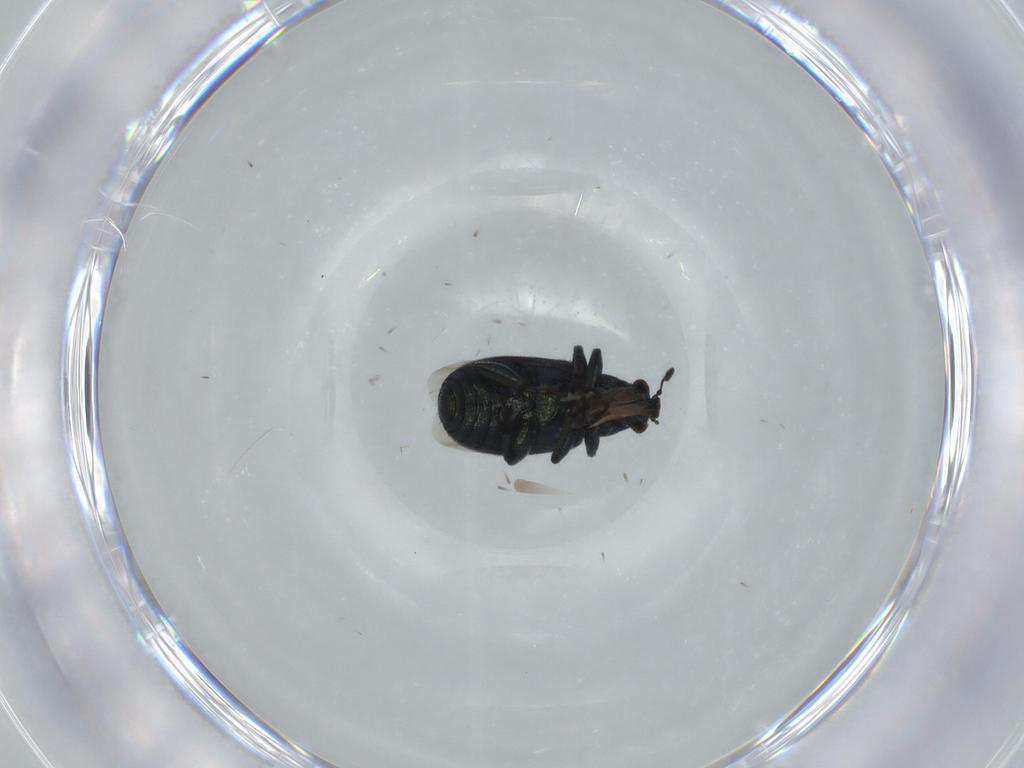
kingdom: Animalia
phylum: Arthropoda
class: Insecta
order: Coleoptera
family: Attelabidae
